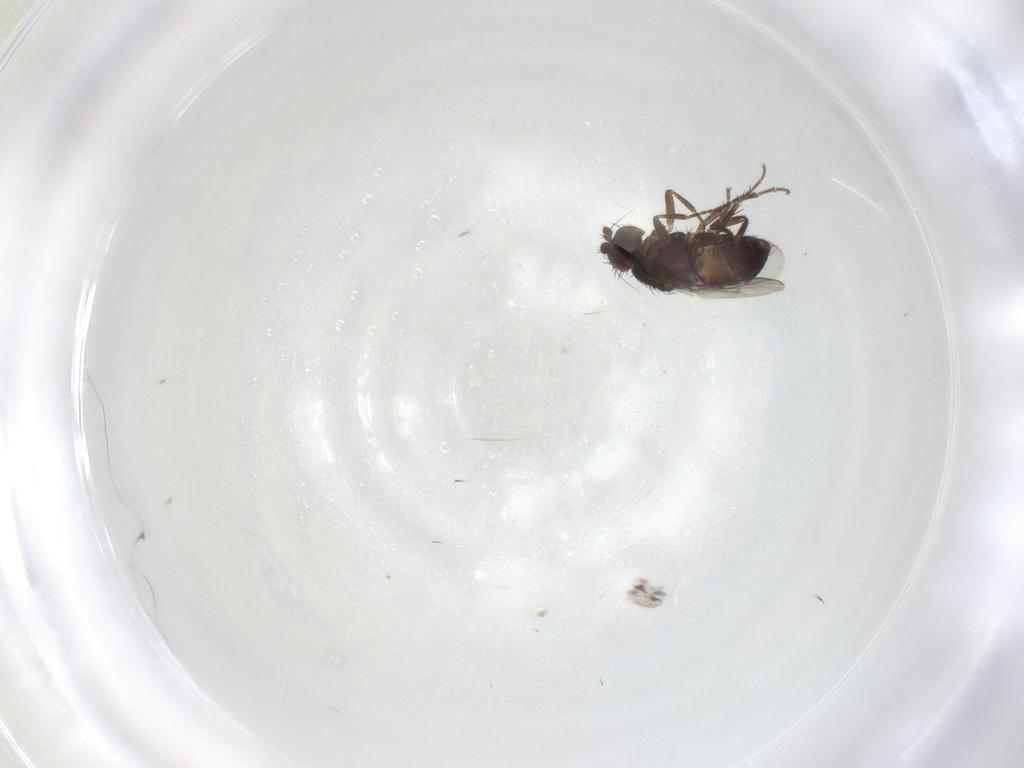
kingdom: Animalia
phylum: Arthropoda
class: Insecta
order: Diptera
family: Sphaeroceridae
